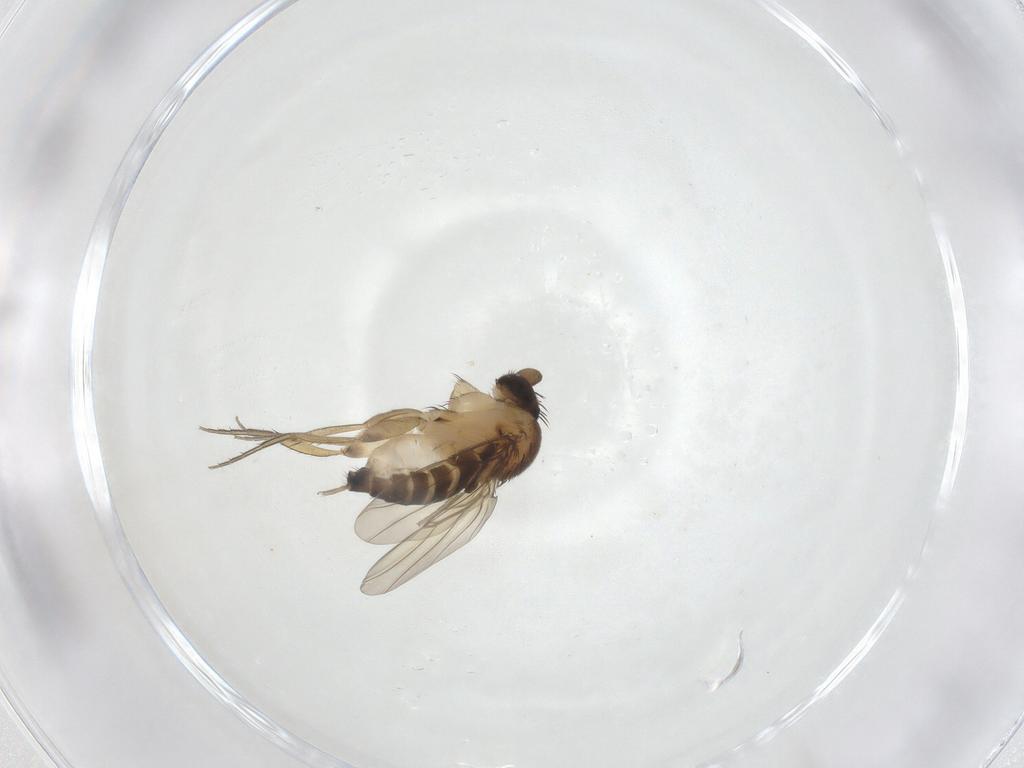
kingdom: Animalia
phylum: Arthropoda
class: Insecta
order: Diptera
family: Phoridae
